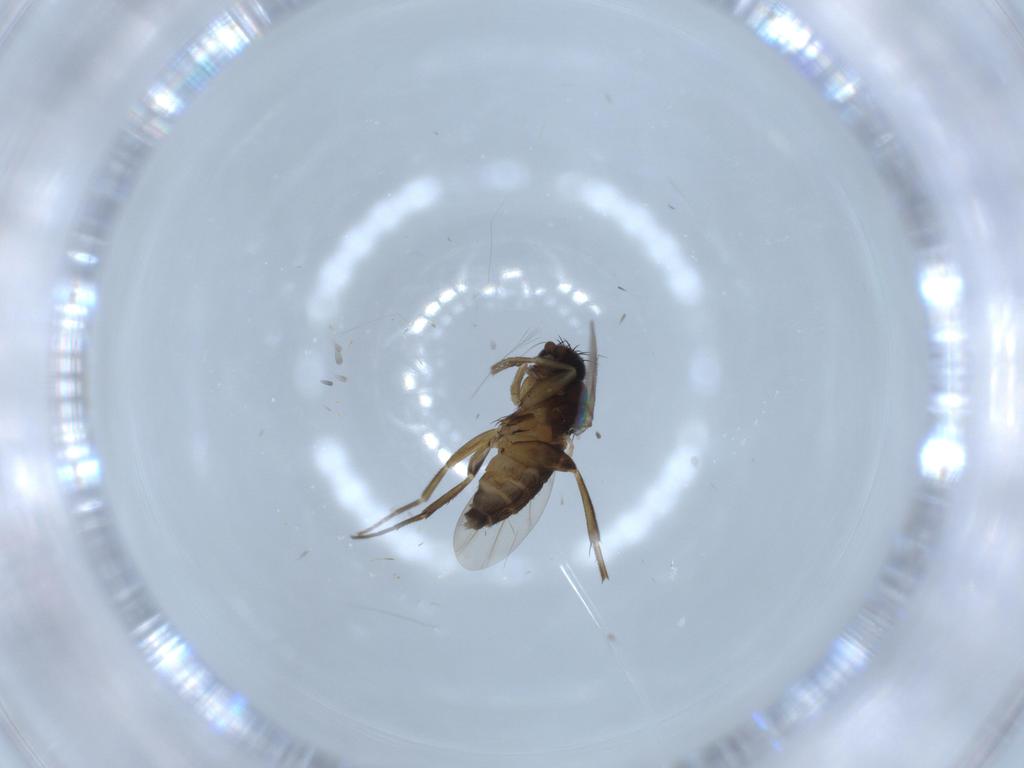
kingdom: Animalia
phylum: Arthropoda
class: Insecta
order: Diptera
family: Phoridae
